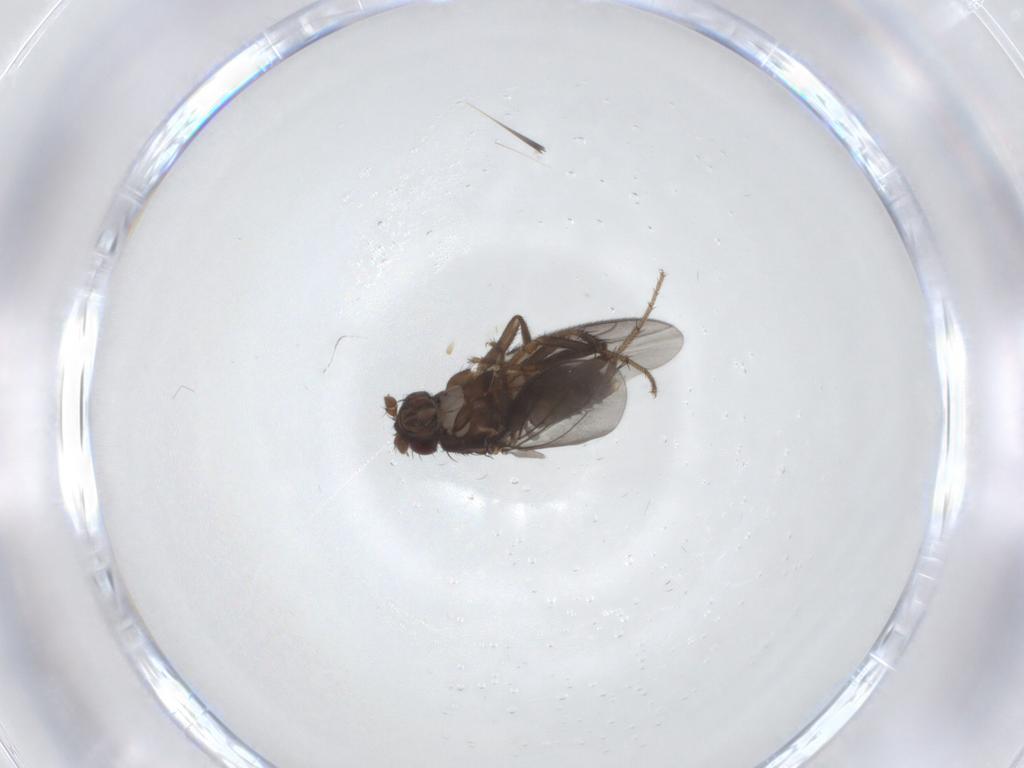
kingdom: Animalia
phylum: Arthropoda
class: Insecta
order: Diptera
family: Sphaeroceridae
